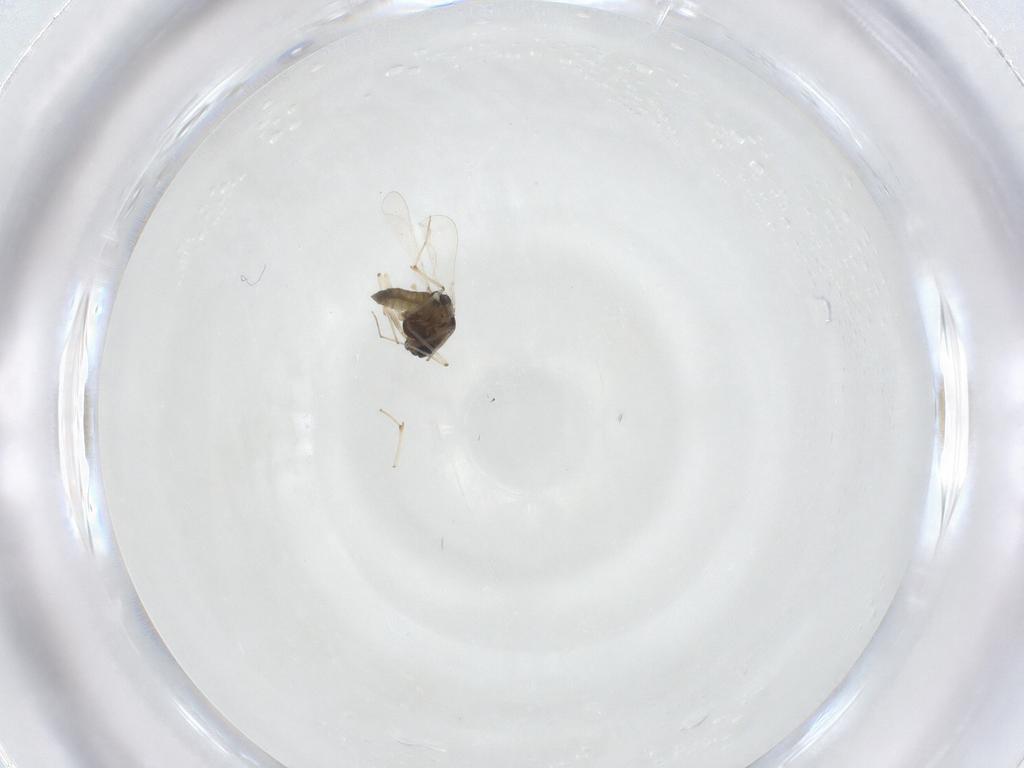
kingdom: Animalia
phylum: Arthropoda
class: Insecta
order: Diptera
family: Chironomidae
